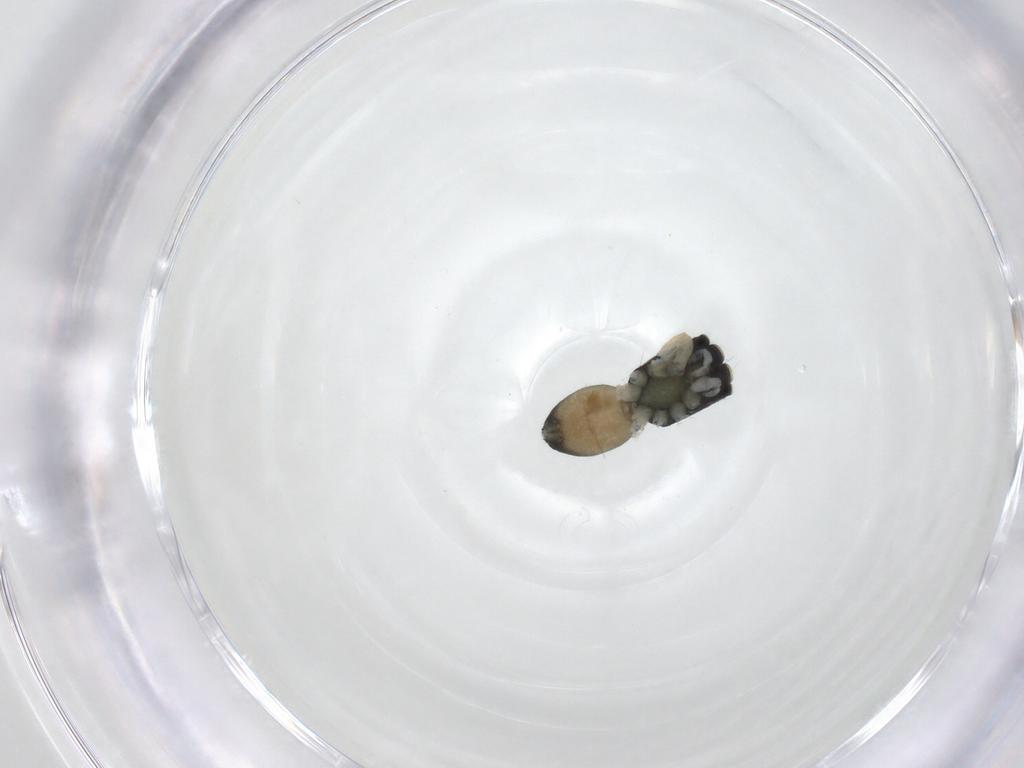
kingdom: Animalia
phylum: Arthropoda
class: Arachnida
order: Araneae
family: Salticidae
